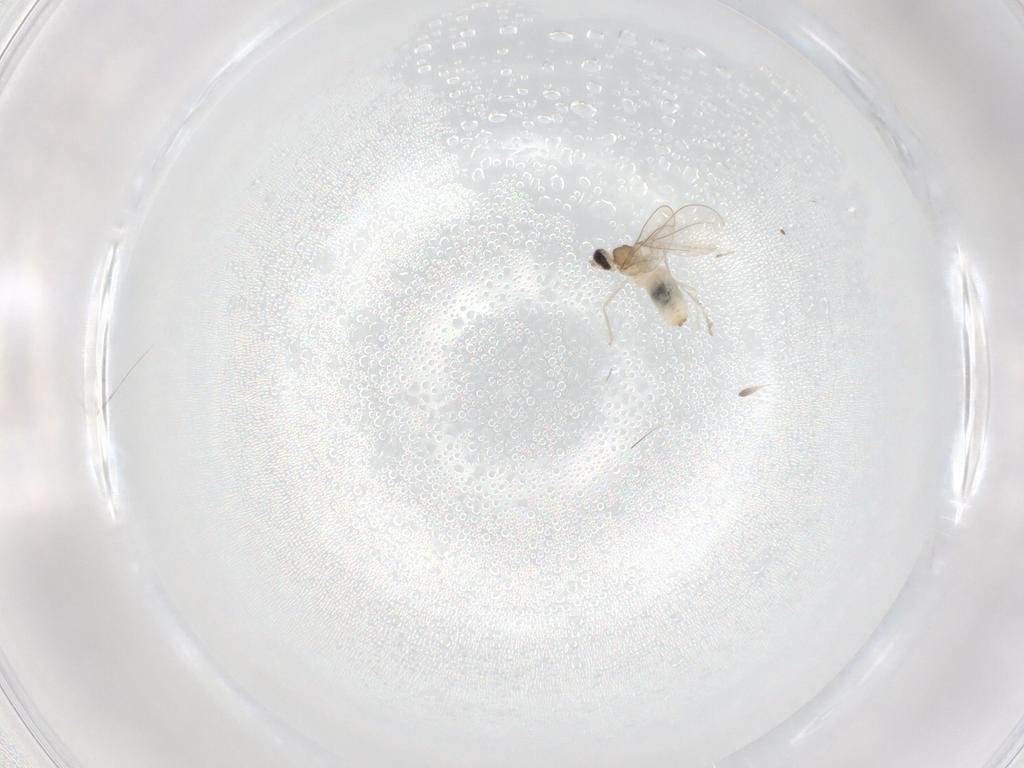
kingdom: Animalia
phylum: Arthropoda
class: Insecta
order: Diptera
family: Cecidomyiidae
